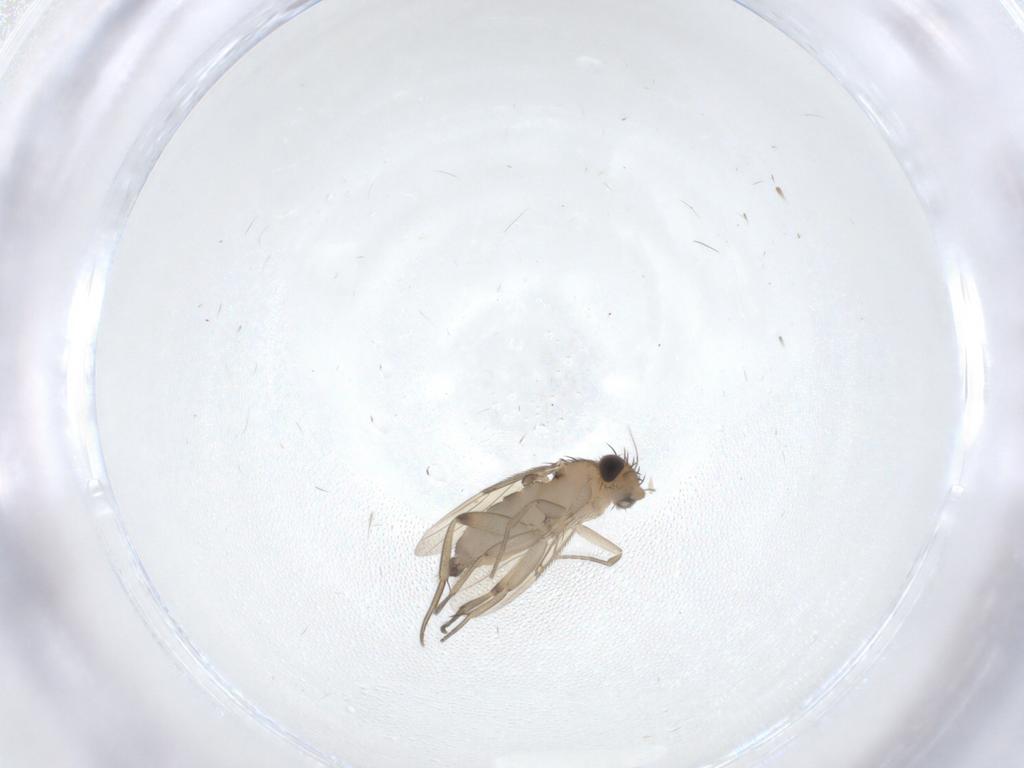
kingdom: Animalia
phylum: Arthropoda
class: Insecta
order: Diptera
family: Phoridae
